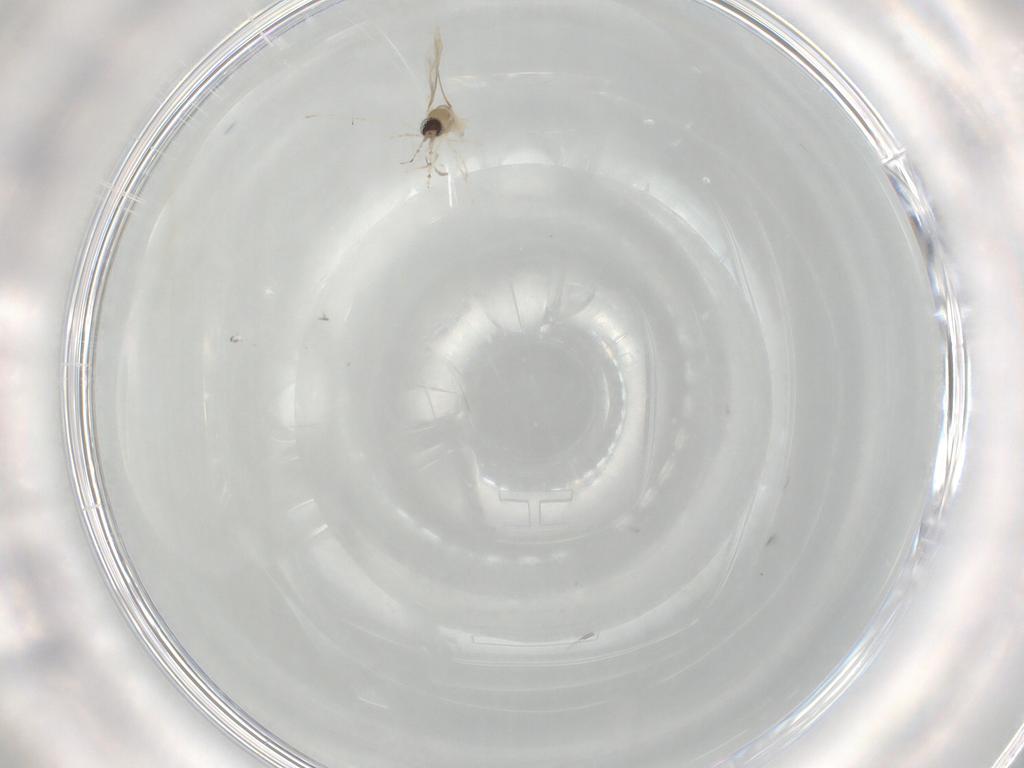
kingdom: Animalia
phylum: Arthropoda
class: Insecta
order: Diptera
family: Cecidomyiidae
